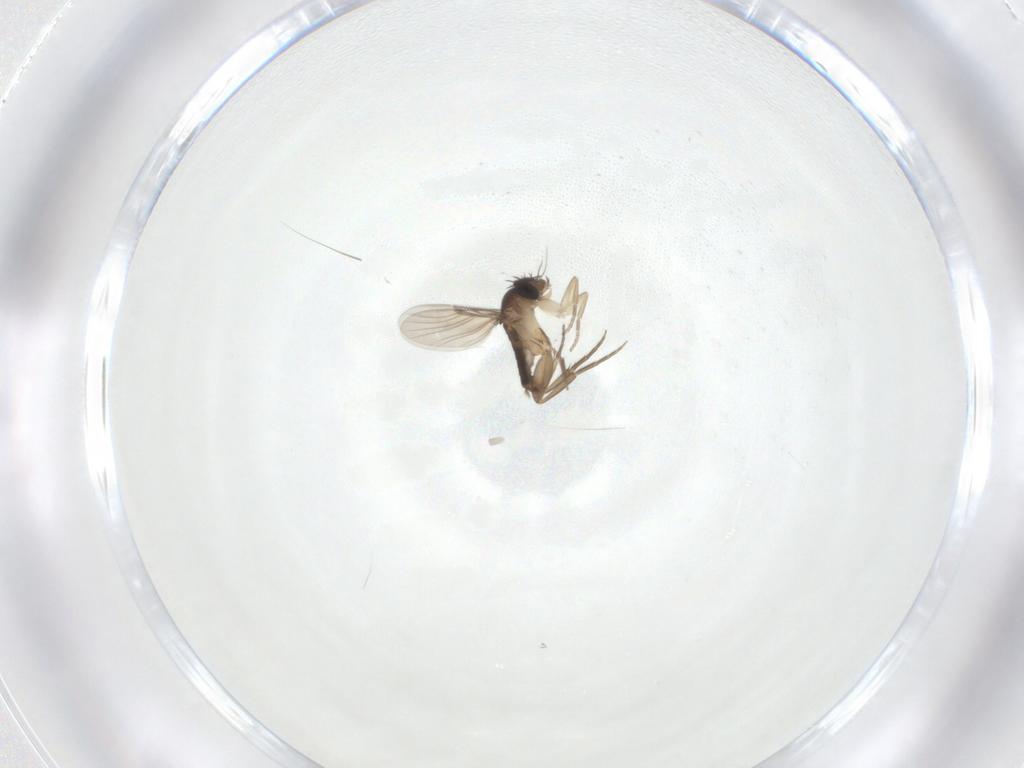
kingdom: Animalia
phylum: Arthropoda
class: Insecta
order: Diptera
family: Phoridae
